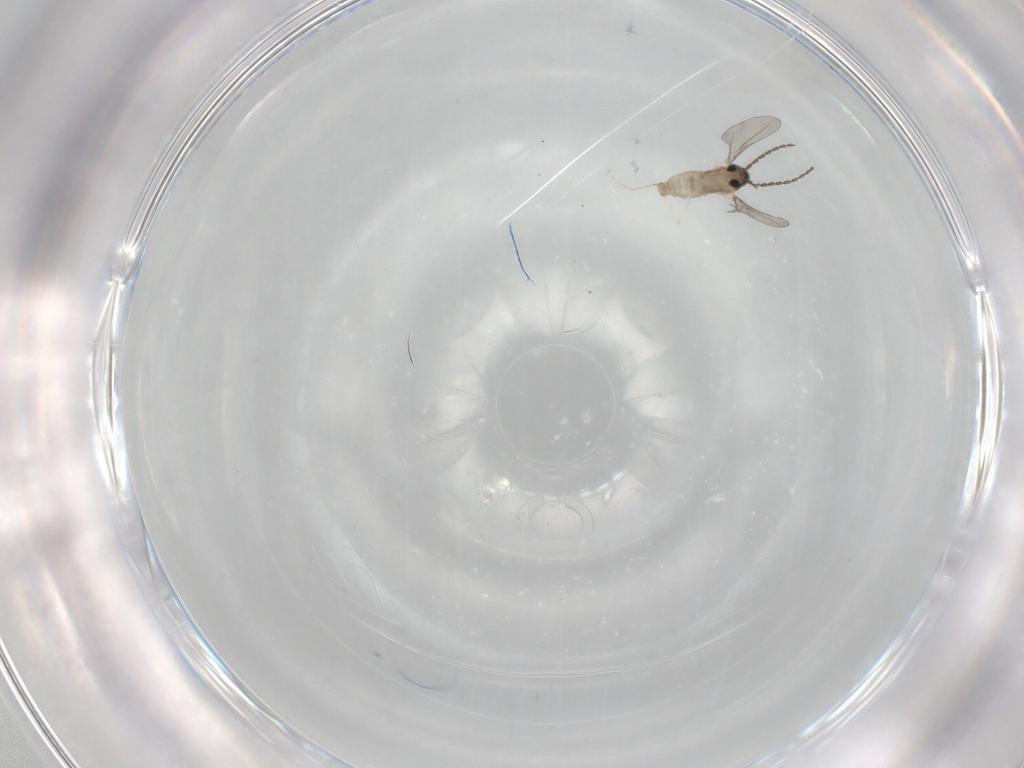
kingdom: Animalia
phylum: Arthropoda
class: Insecta
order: Diptera
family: Cecidomyiidae
